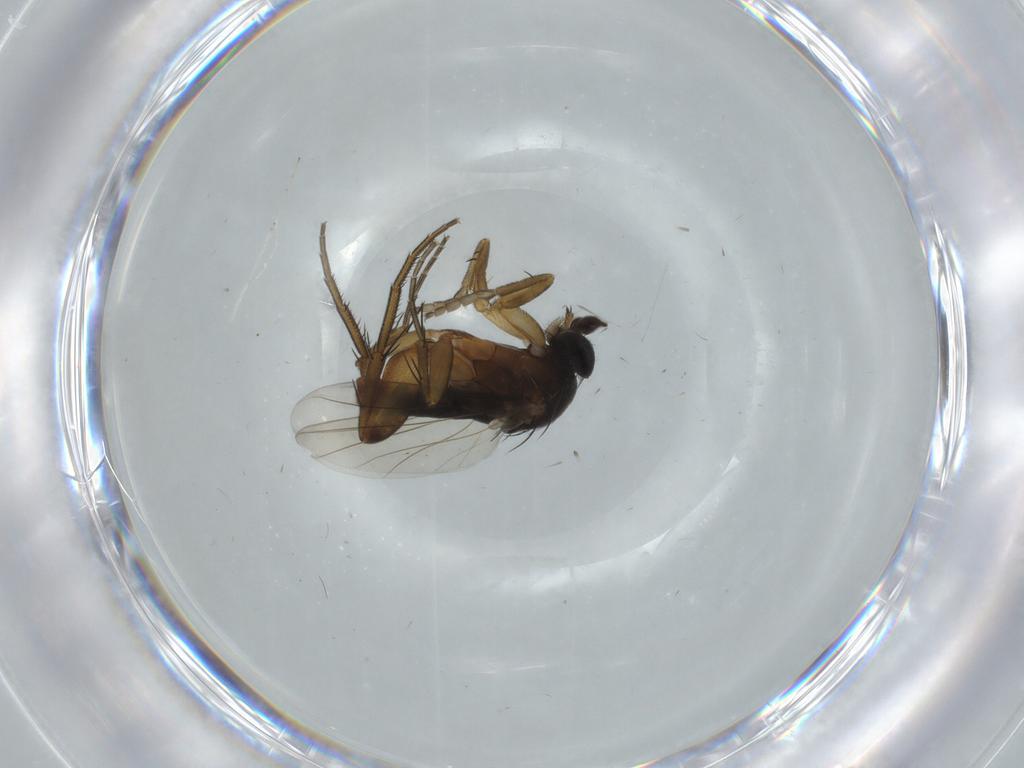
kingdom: Animalia
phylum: Arthropoda
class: Insecta
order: Diptera
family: Phoridae
